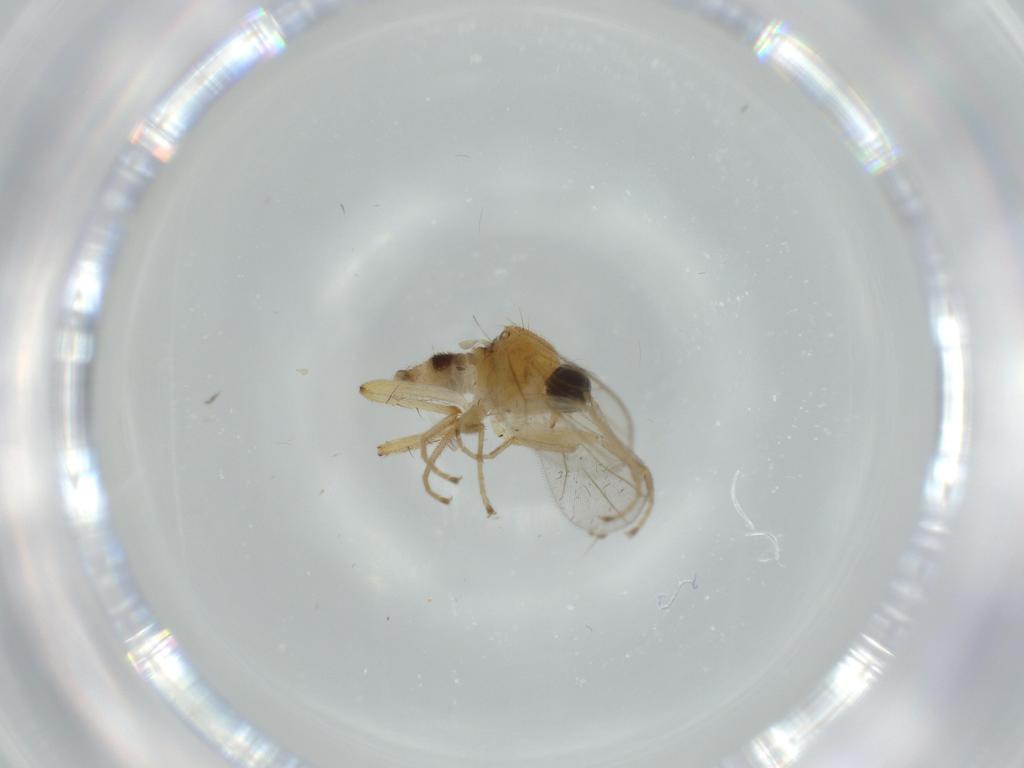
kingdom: Animalia
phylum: Arthropoda
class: Insecta
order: Diptera
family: Hybotidae
